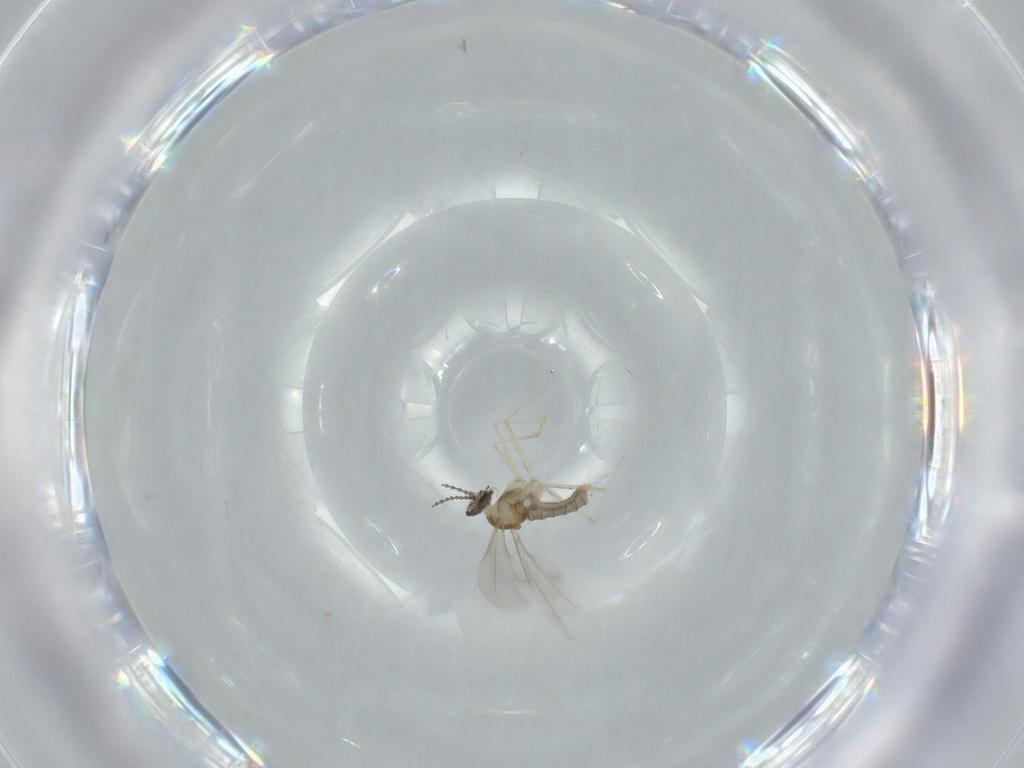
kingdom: Animalia
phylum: Arthropoda
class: Insecta
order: Diptera
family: Cecidomyiidae
